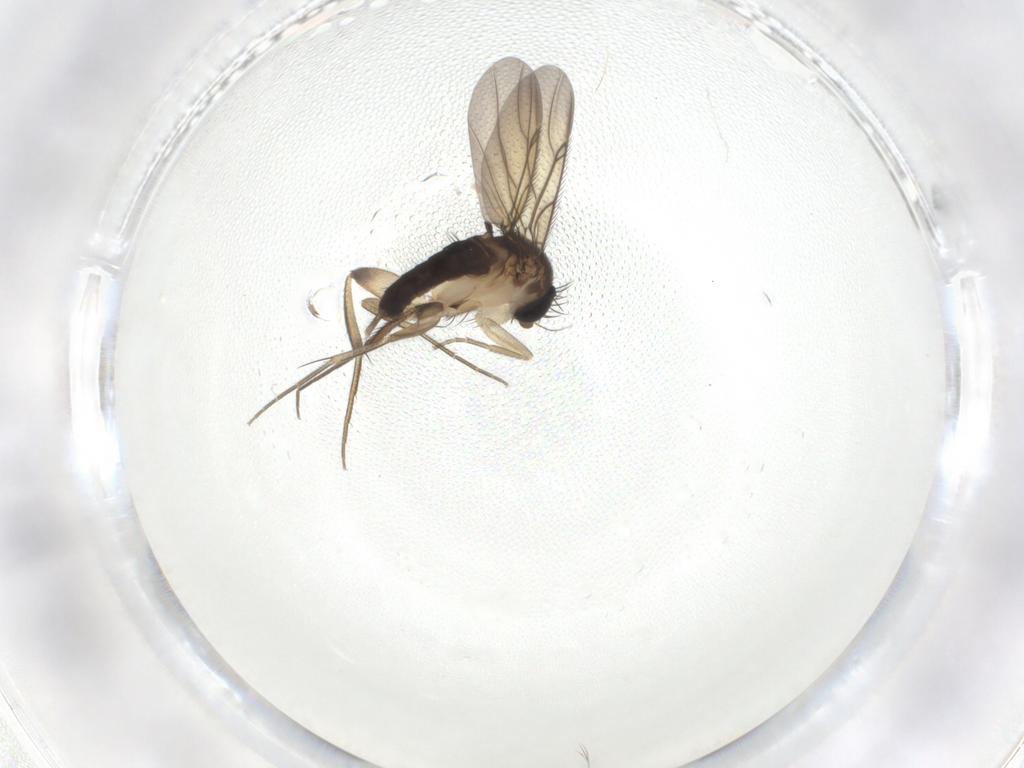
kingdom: Animalia
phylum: Arthropoda
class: Insecta
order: Diptera
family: Phoridae
